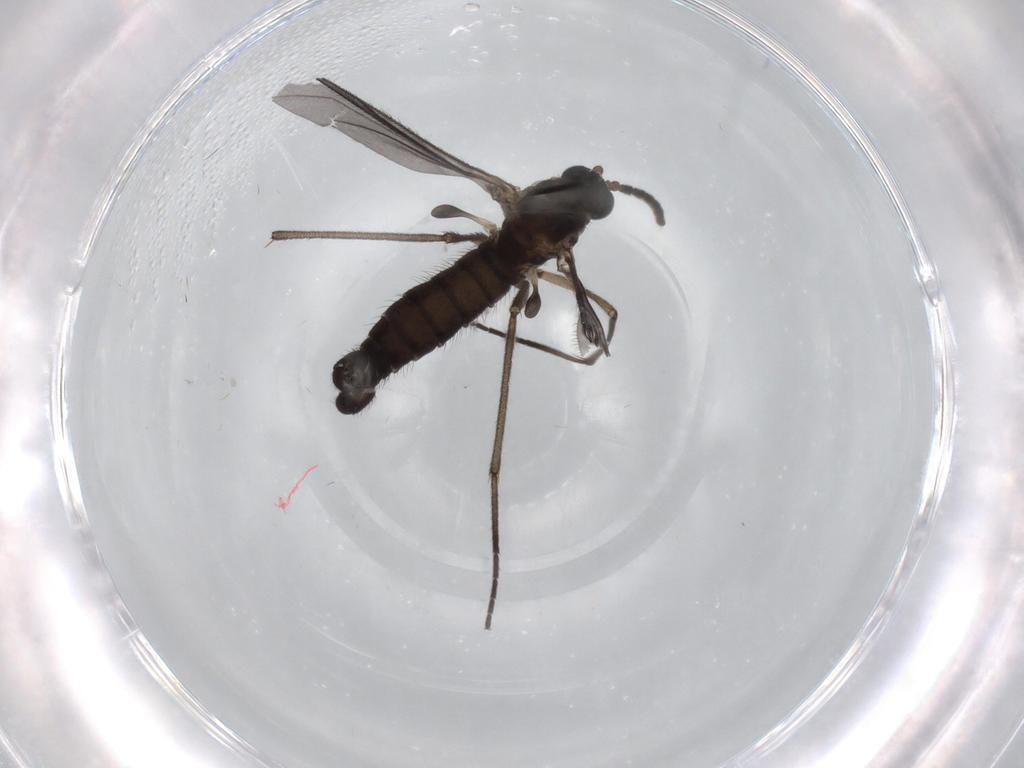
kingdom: Animalia
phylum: Arthropoda
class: Insecta
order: Diptera
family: Sciaridae
